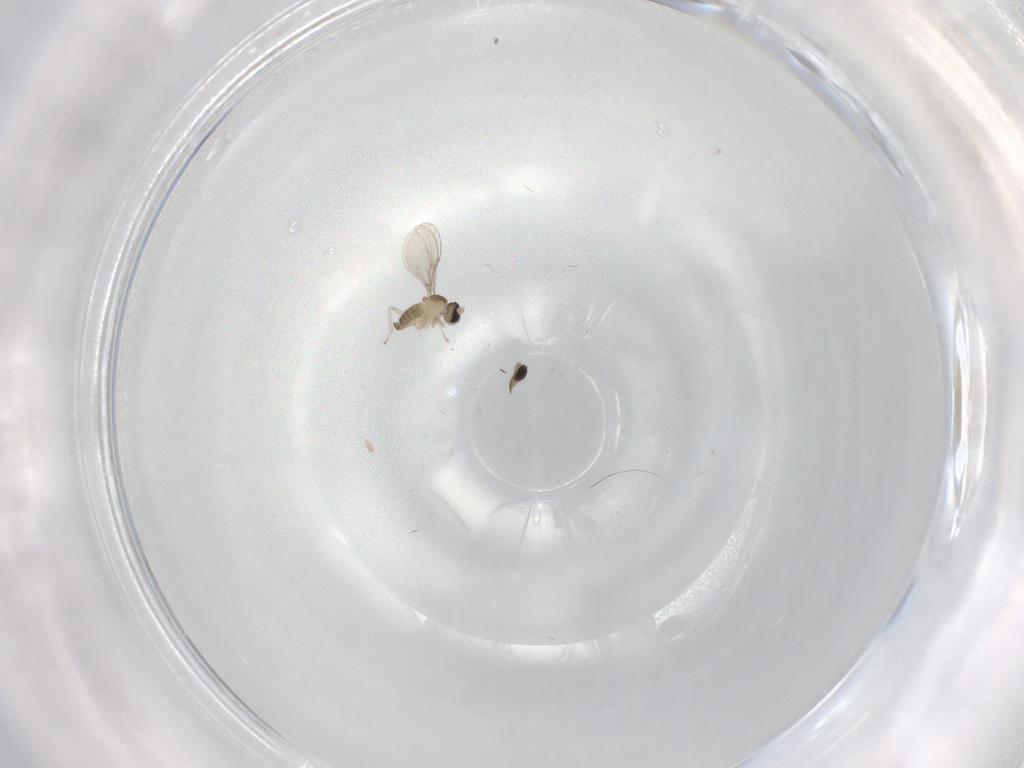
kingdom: Animalia
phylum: Arthropoda
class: Insecta
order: Diptera
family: Cecidomyiidae
